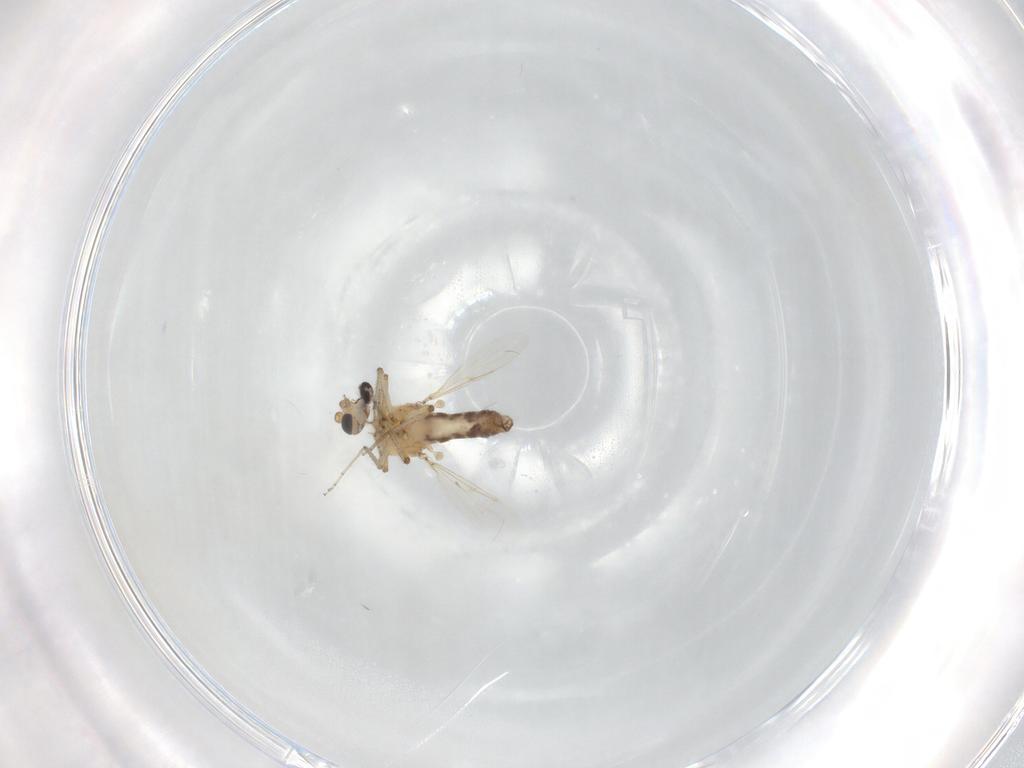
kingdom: Animalia
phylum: Arthropoda
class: Insecta
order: Diptera
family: Ceratopogonidae
